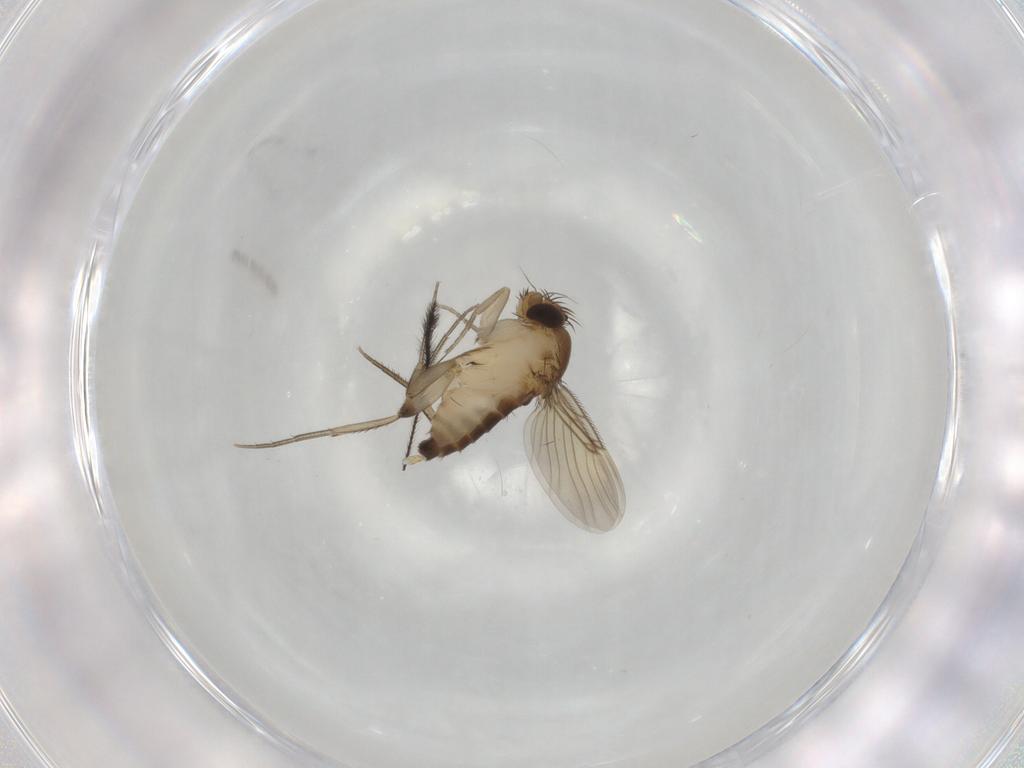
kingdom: Animalia
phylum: Arthropoda
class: Insecta
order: Diptera
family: Phoridae
